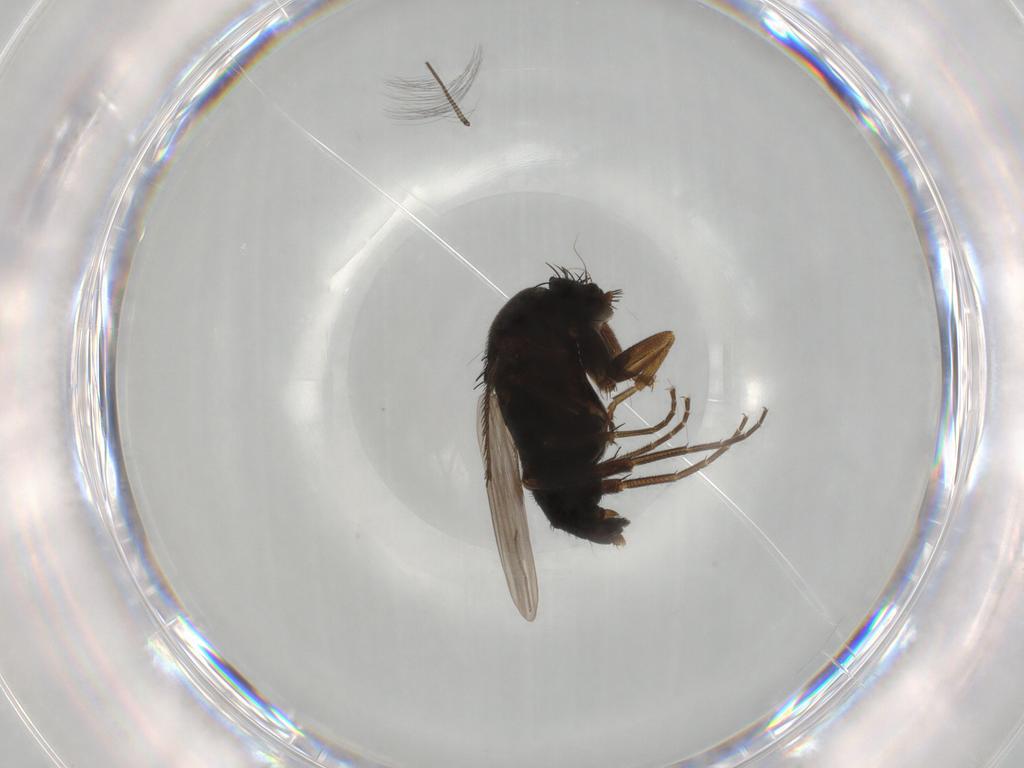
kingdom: Animalia
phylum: Arthropoda
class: Insecta
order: Diptera
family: Phoridae
